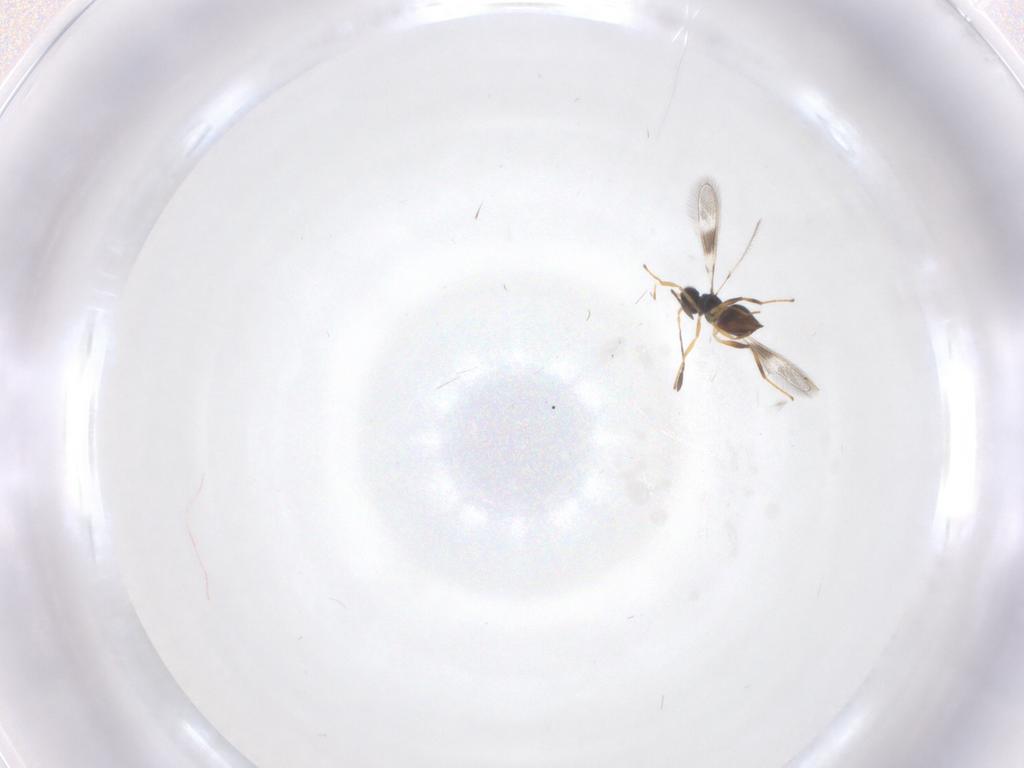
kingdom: Animalia
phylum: Arthropoda
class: Insecta
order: Hymenoptera
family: Mymaridae
